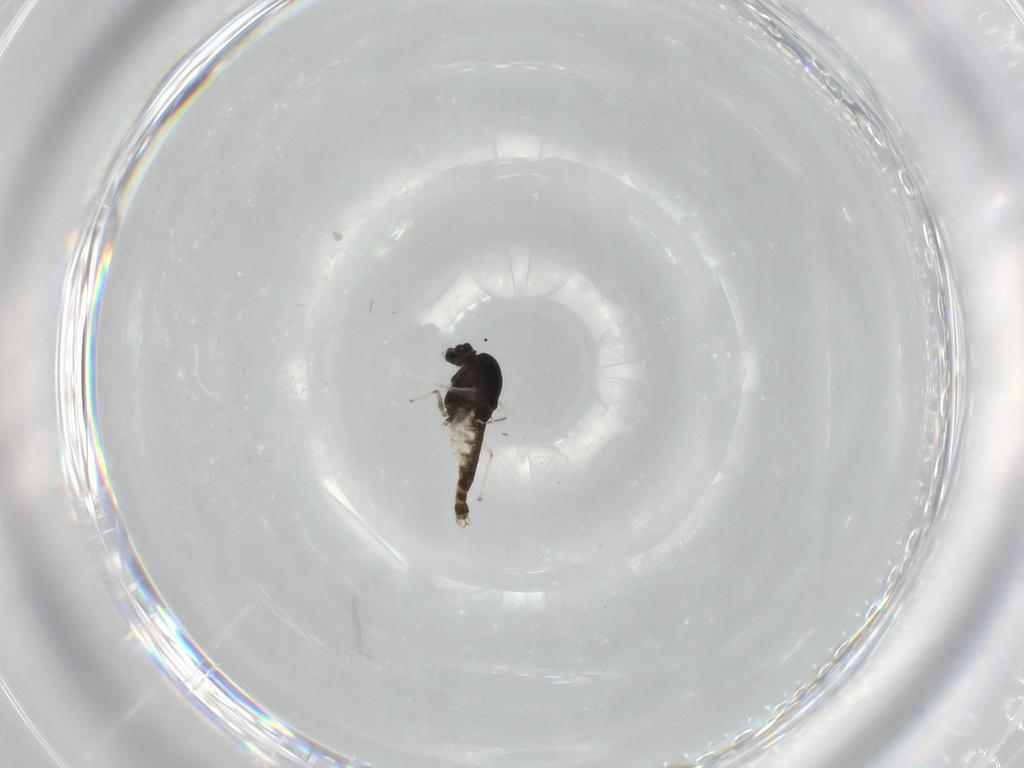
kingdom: Animalia
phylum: Arthropoda
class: Insecta
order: Diptera
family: Chironomidae
